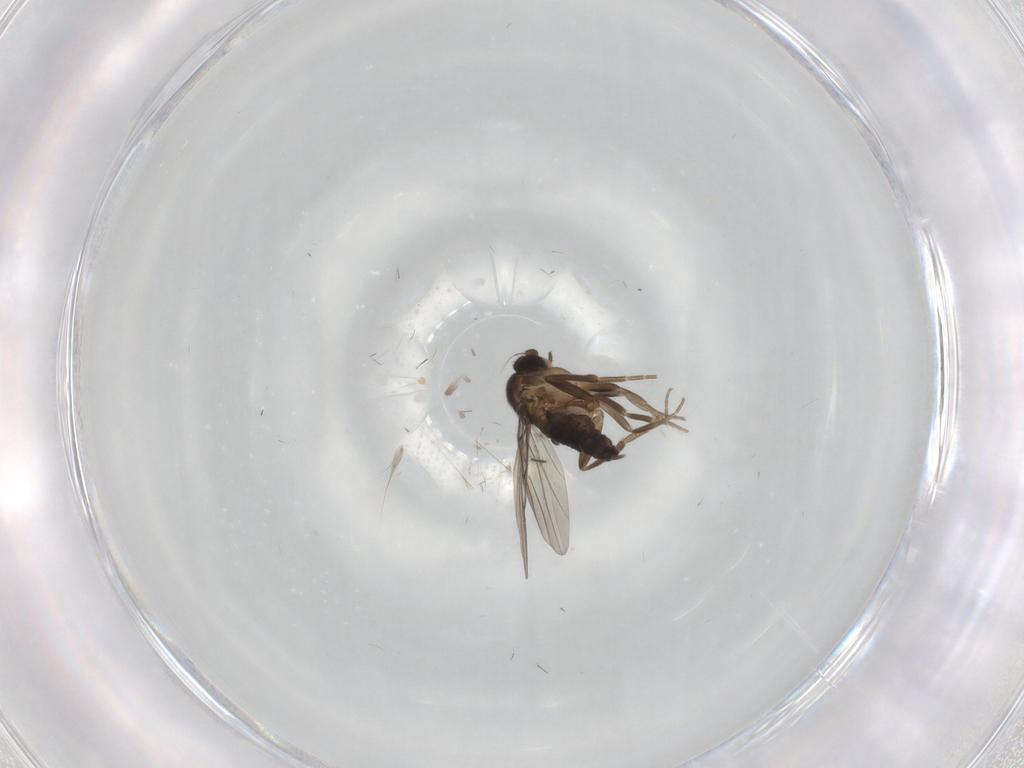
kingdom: Animalia
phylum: Arthropoda
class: Insecta
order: Diptera
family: Phoridae
